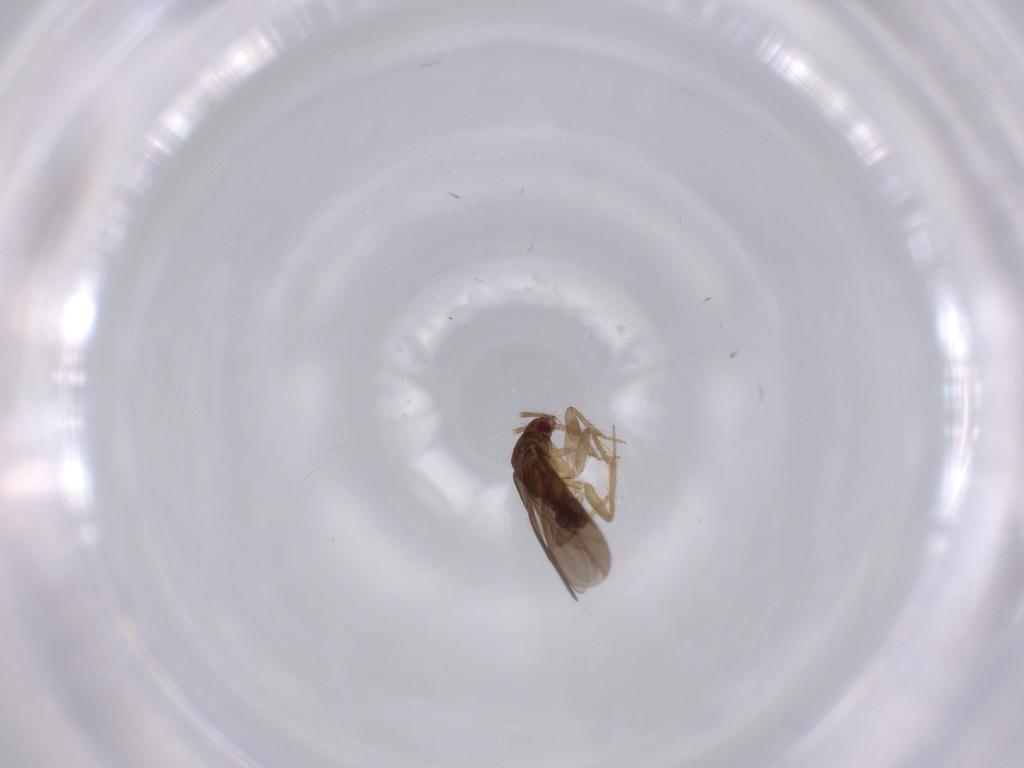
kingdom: Animalia
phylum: Arthropoda
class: Insecta
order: Hemiptera
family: Ceratocombidae
